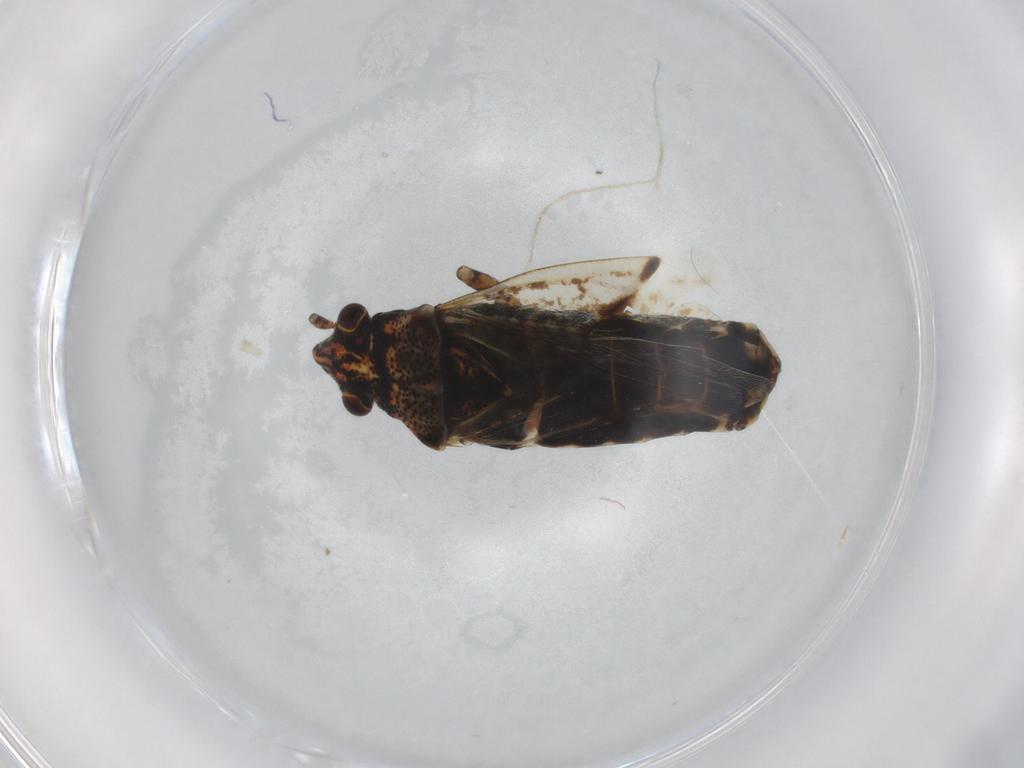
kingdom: Animalia
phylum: Arthropoda
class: Insecta
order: Hemiptera
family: Lygaeidae
